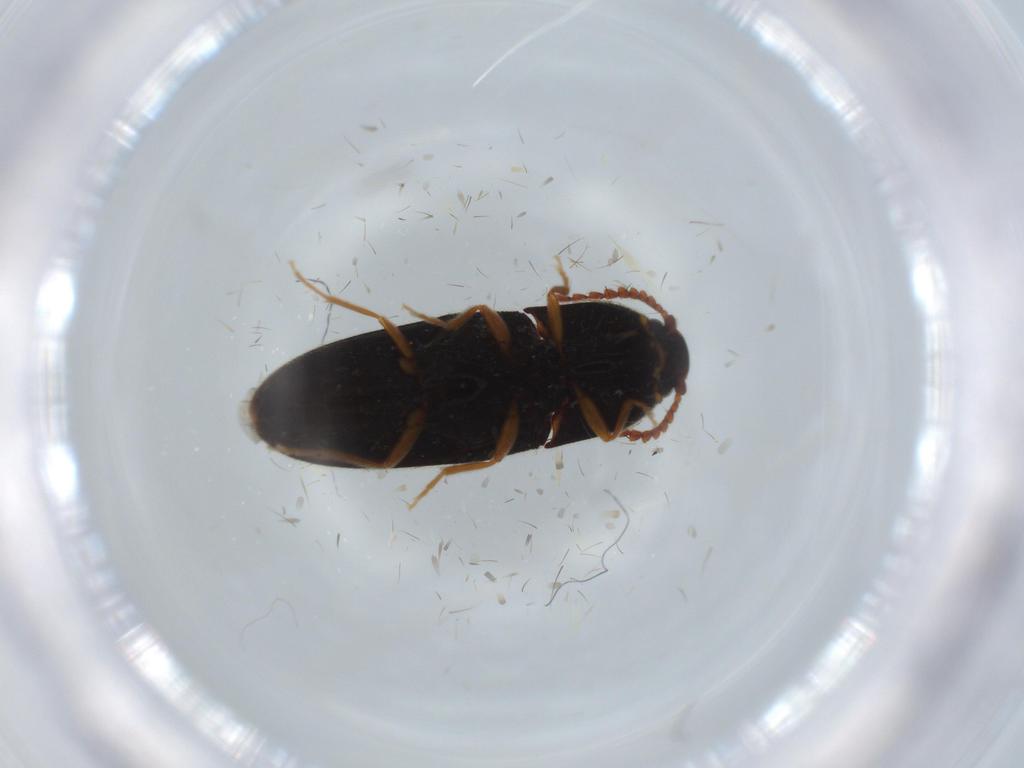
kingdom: Animalia
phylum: Arthropoda
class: Insecta
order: Coleoptera
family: Elateridae
